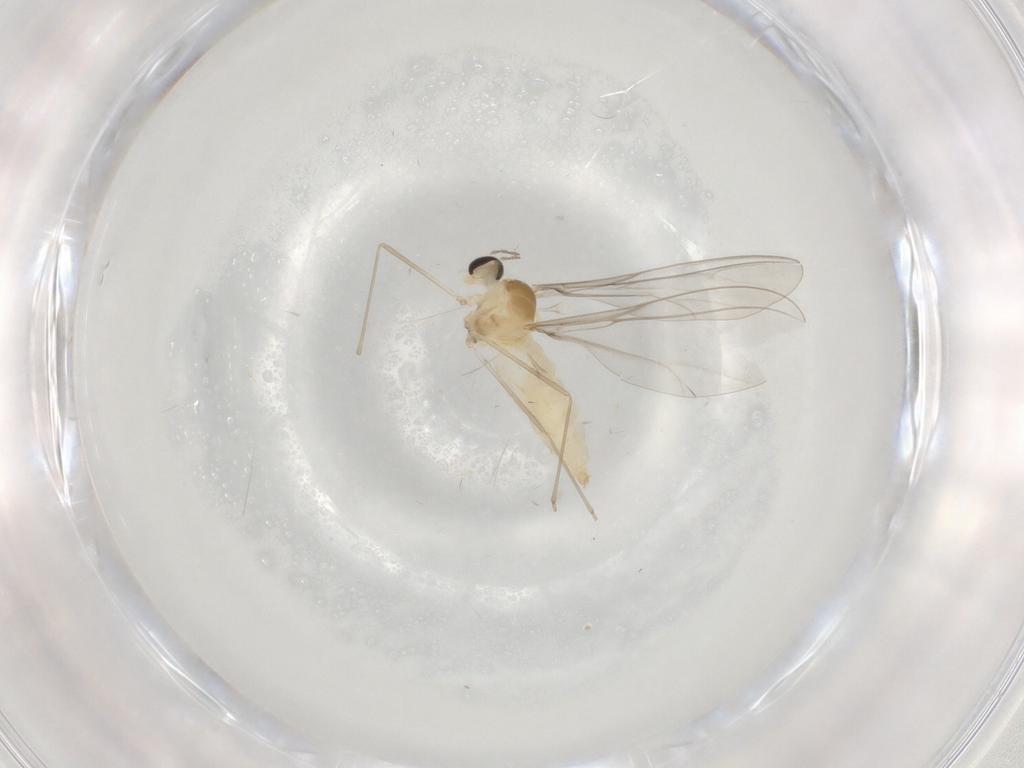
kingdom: Animalia
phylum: Arthropoda
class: Insecta
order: Diptera
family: Cecidomyiidae
